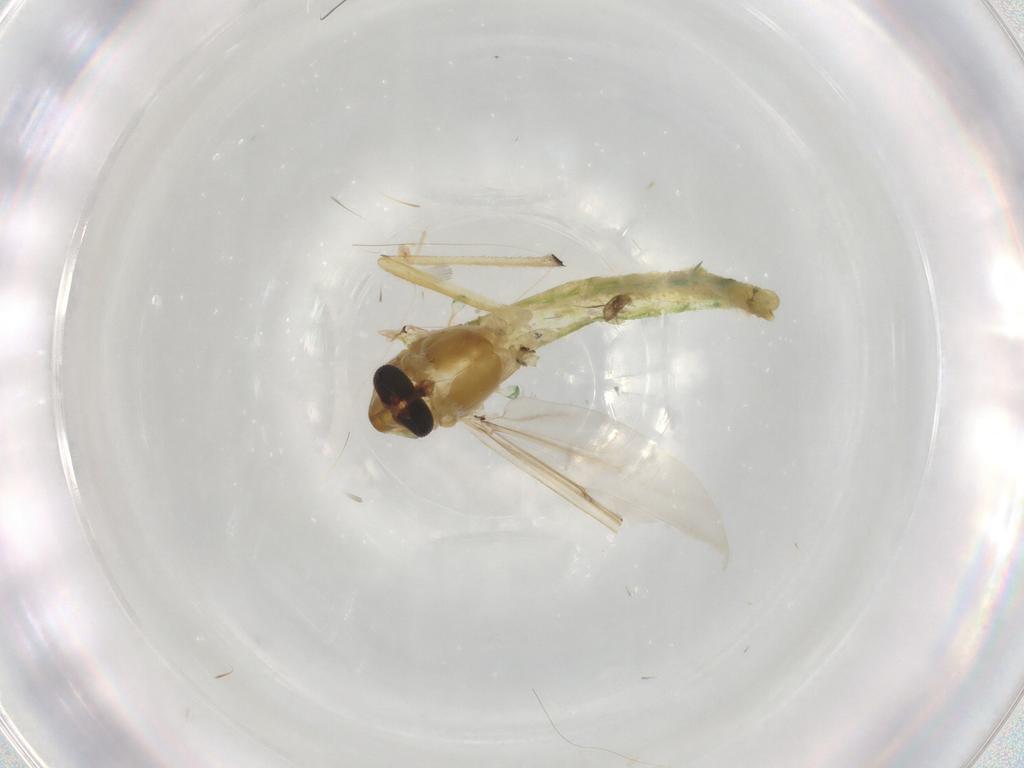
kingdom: Animalia
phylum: Arthropoda
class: Insecta
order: Diptera
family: Chironomidae
